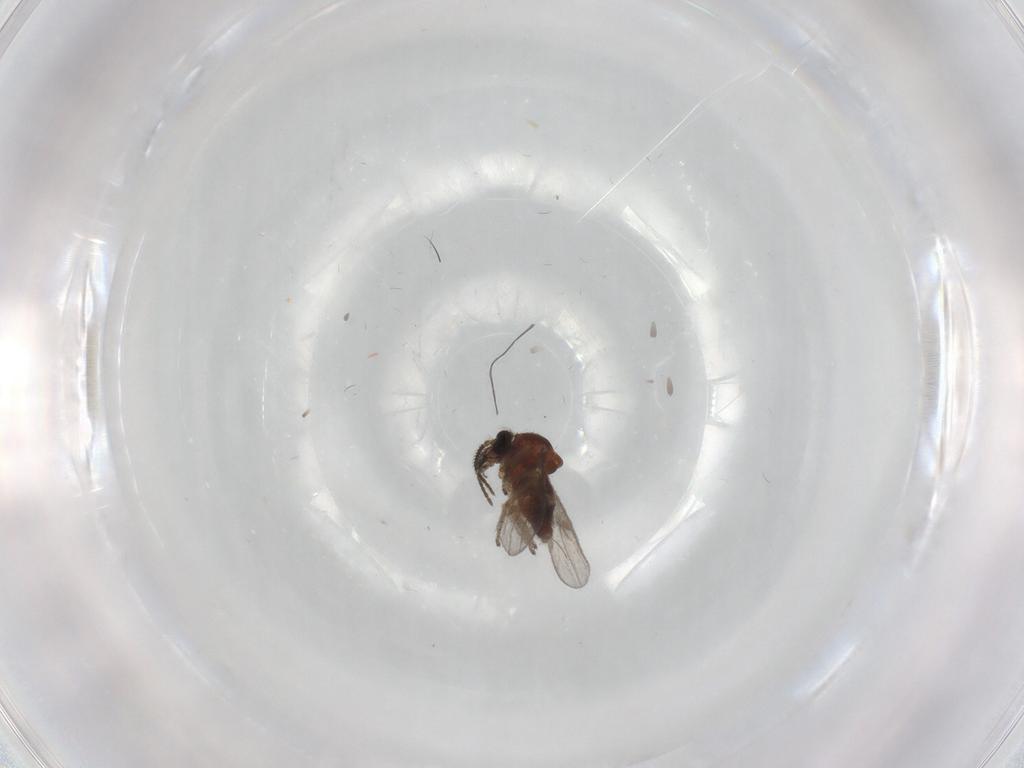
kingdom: Animalia
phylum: Arthropoda
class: Insecta
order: Diptera
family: Ceratopogonidae
